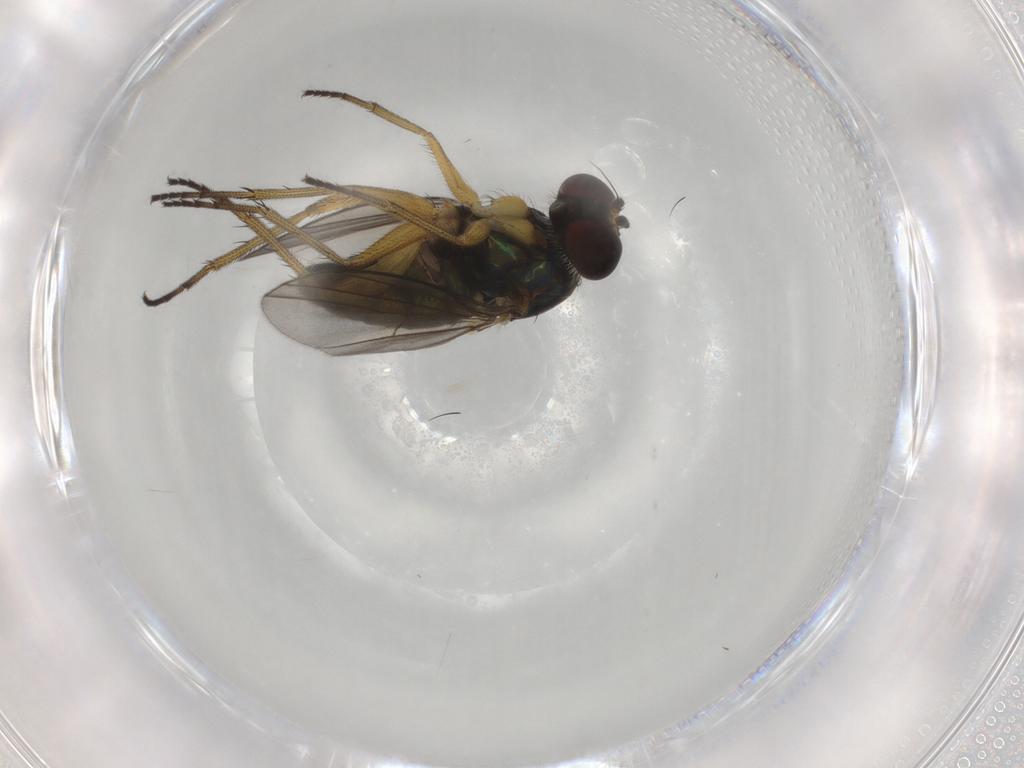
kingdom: Animalia
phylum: Arthropoda
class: Insecta
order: Diptera
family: Dolichopodidae
